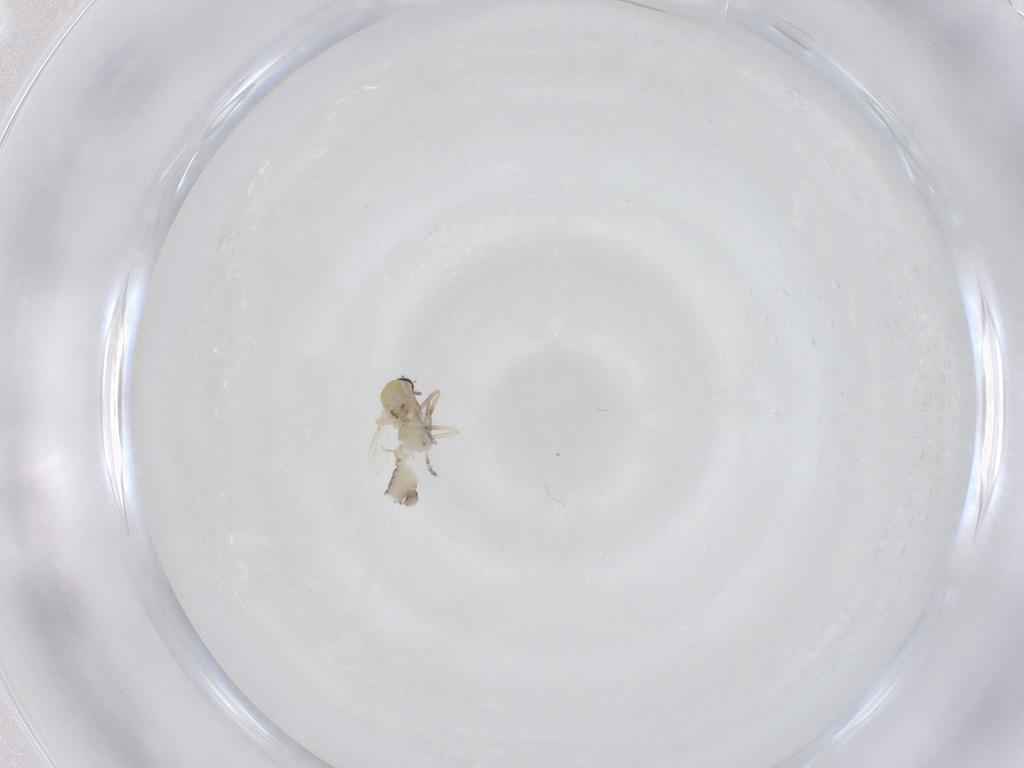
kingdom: Animalia
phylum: Arthropoda
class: Insecta
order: Diptera
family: Ceratopogonidae
